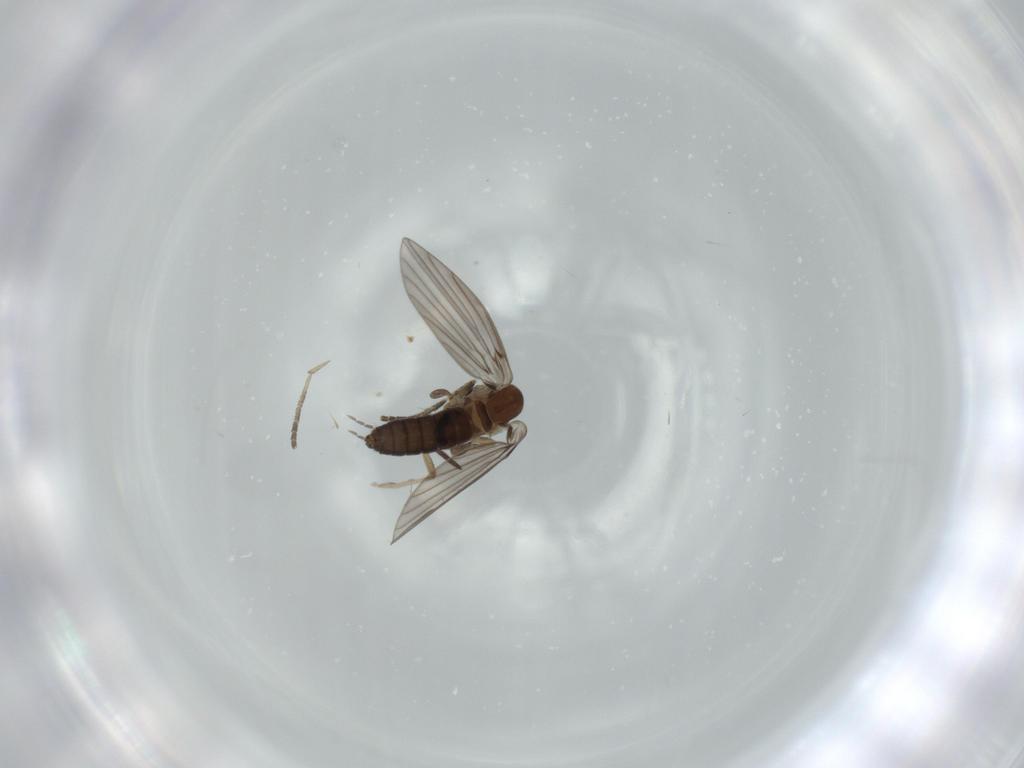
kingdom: Animalia
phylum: Arthropoda
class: Insecta
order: Diptera
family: Psychodidae
